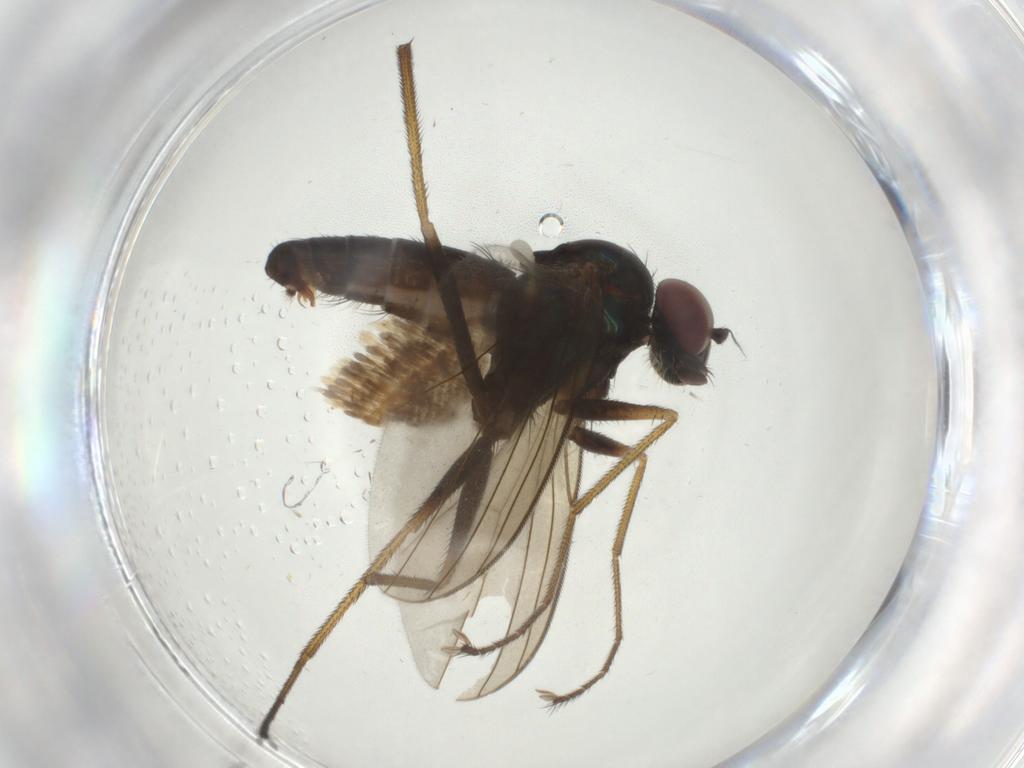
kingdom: Animalia
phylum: Arthropoda
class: Insecta
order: Diptera
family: Dolichopodidae
